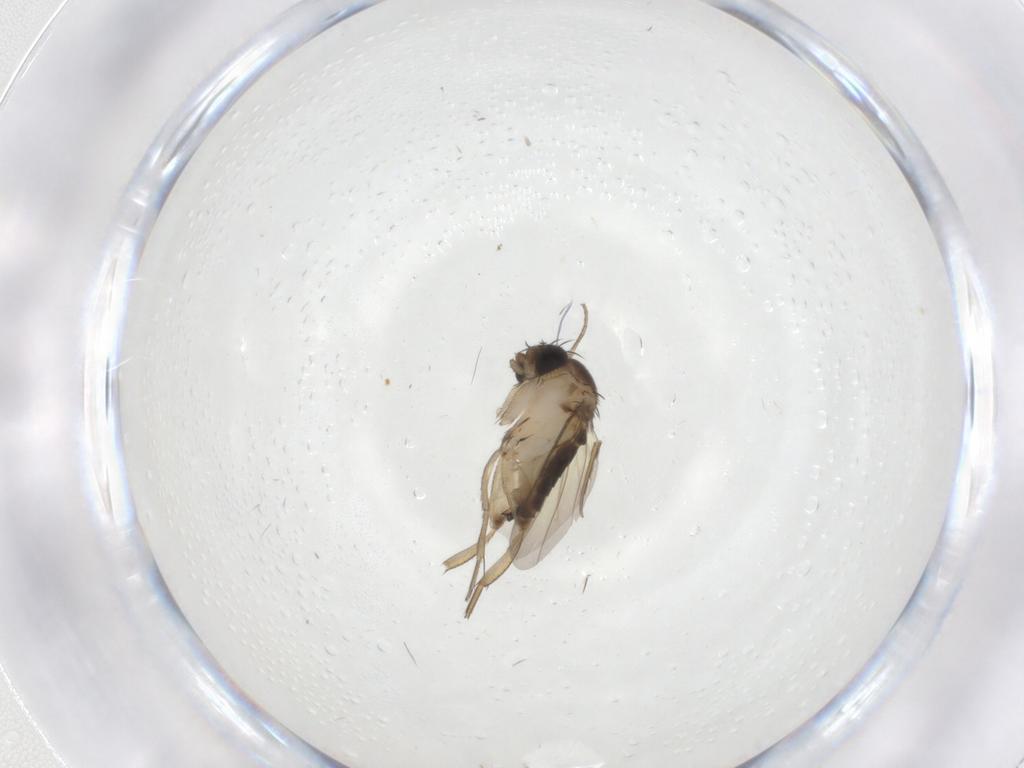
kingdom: Animalia
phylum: Arthropoda
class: Insecta
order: Diptera
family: Phoridae
